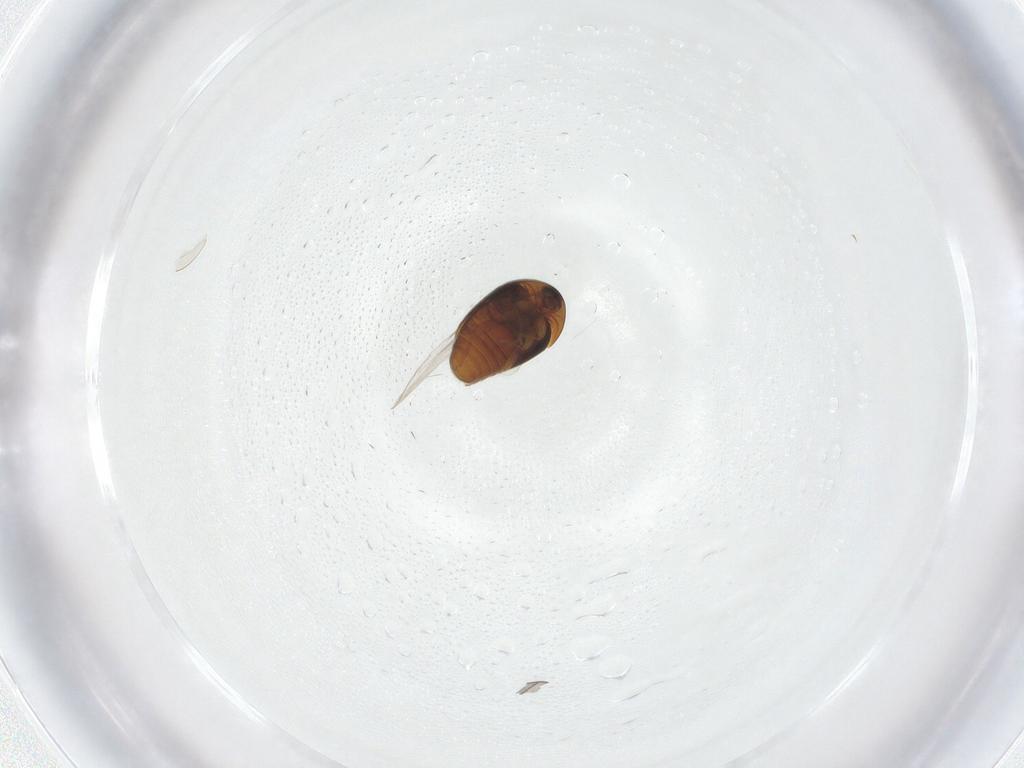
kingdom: Animalia
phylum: Arthropoda
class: Insecta
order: Coleoptera
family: Corylophidae
